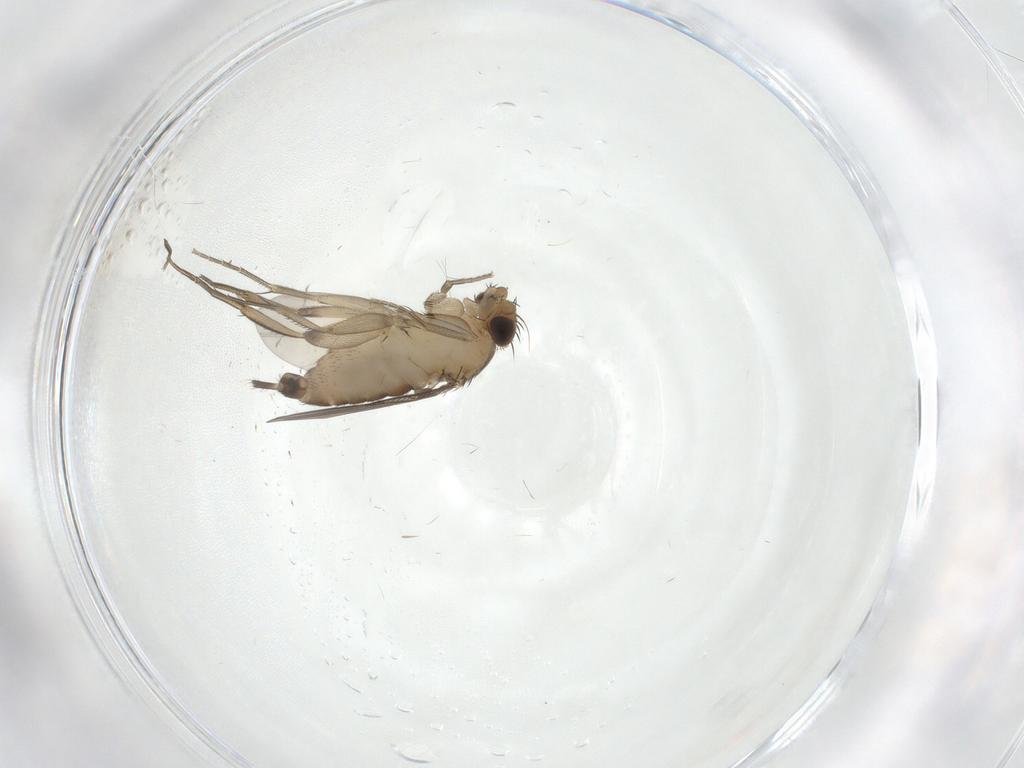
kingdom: Animalia
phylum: Arthropoda
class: Insecta
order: Diptera
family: Phoridae
